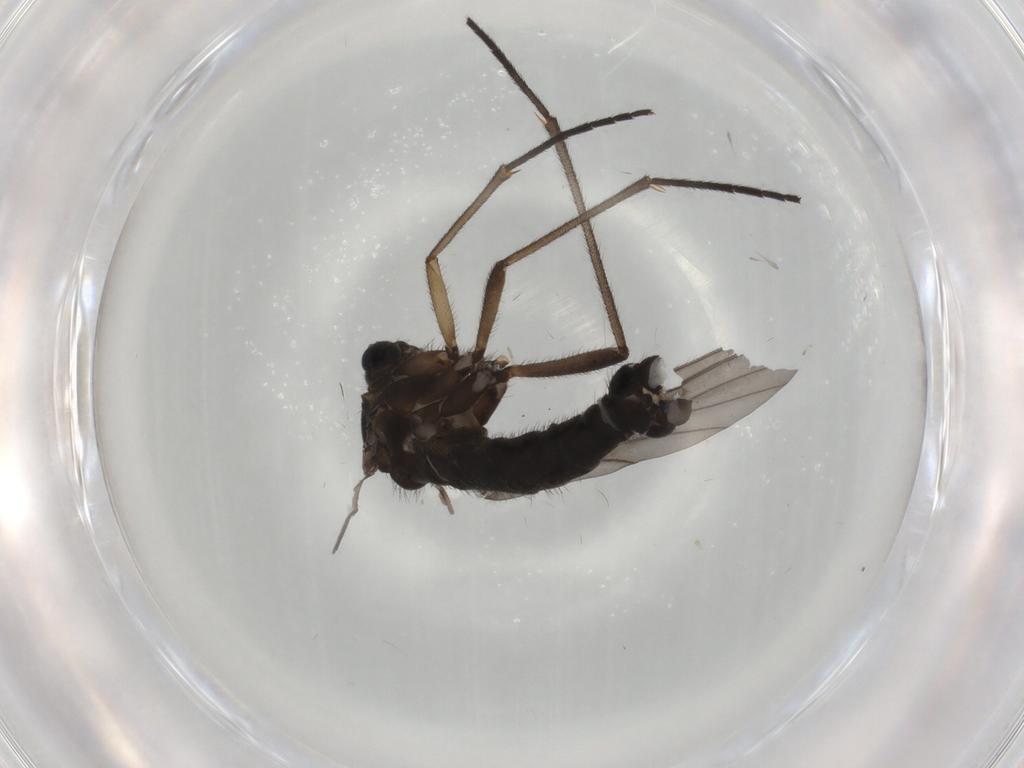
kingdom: Animalia
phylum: Arthropoda
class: Insecta
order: Diptera
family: Sciaridae
